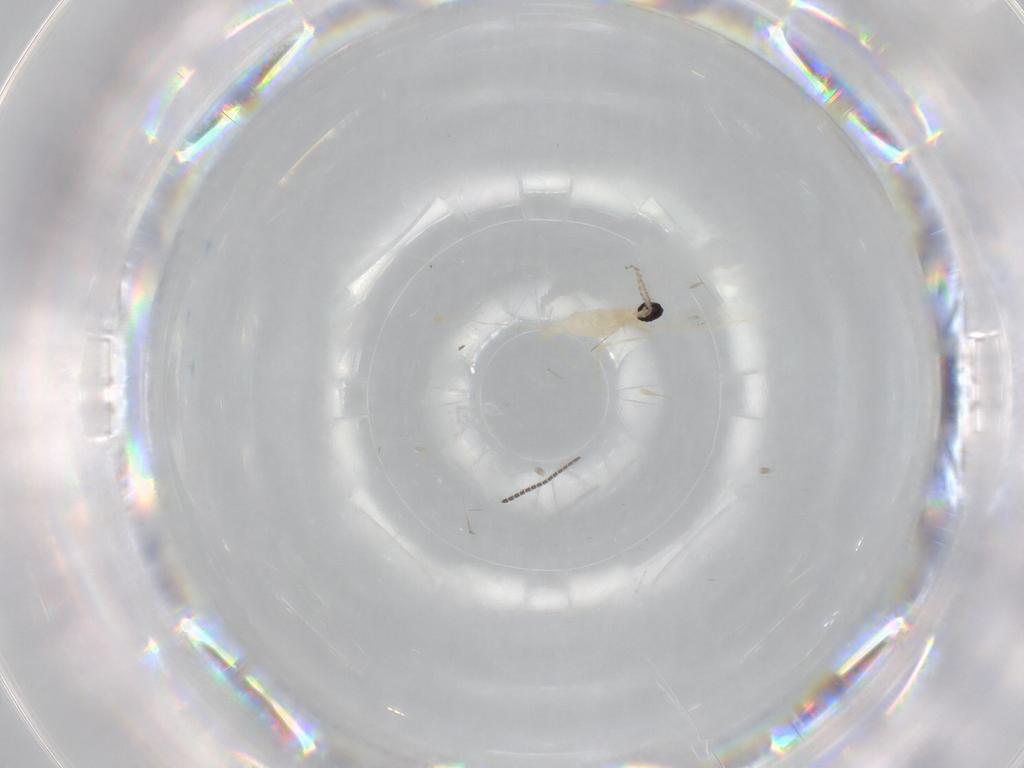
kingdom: Animalia
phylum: Arthropoda
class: Insecta
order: Diptera
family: Cecidomyiidae
